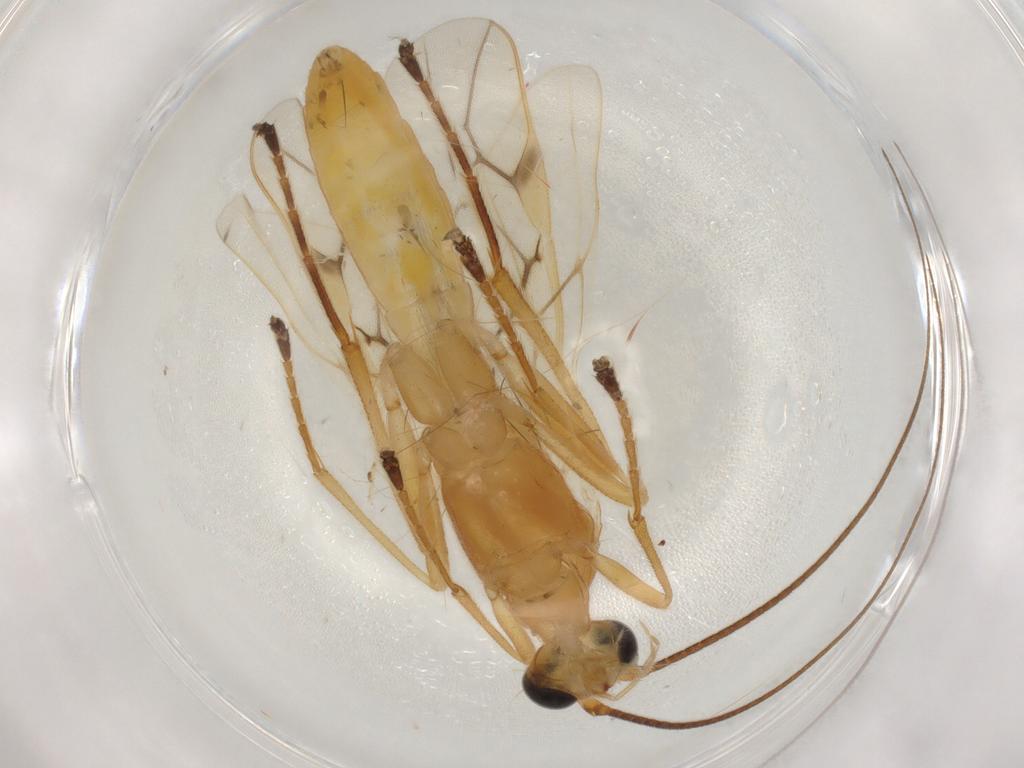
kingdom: Animalia
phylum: Arthropoda
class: Insecta
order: Hymenoptera
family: Braconidae
